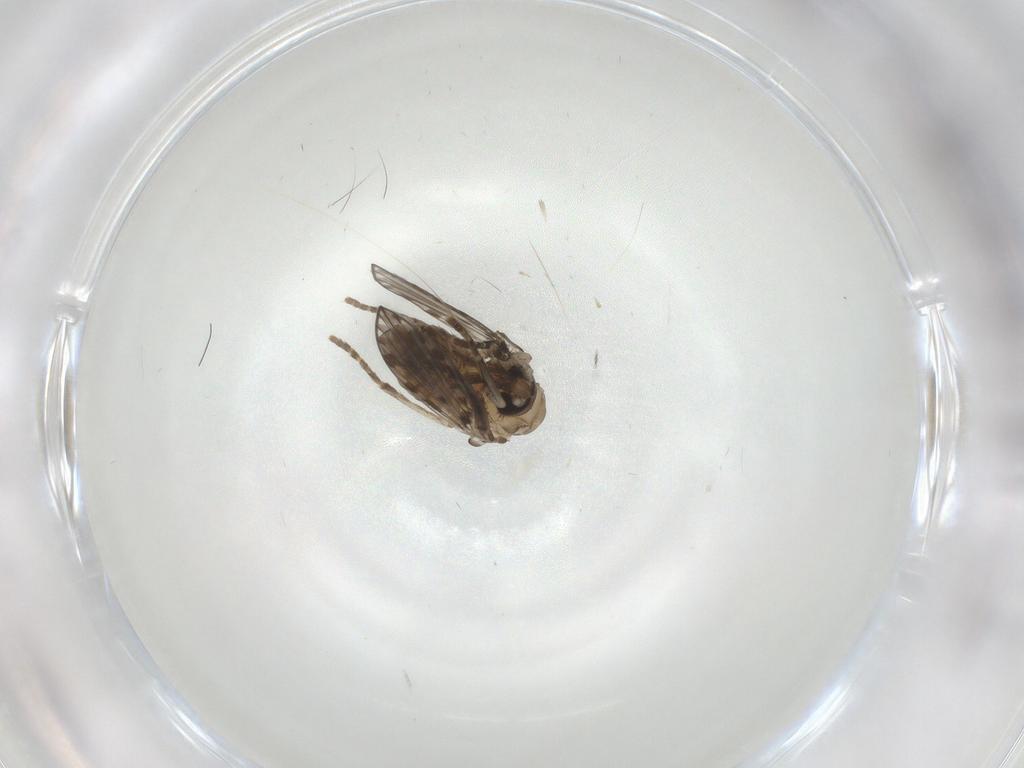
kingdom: Animalia
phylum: Arthropoda
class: Insecta
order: Diptera
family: Psychodidae
